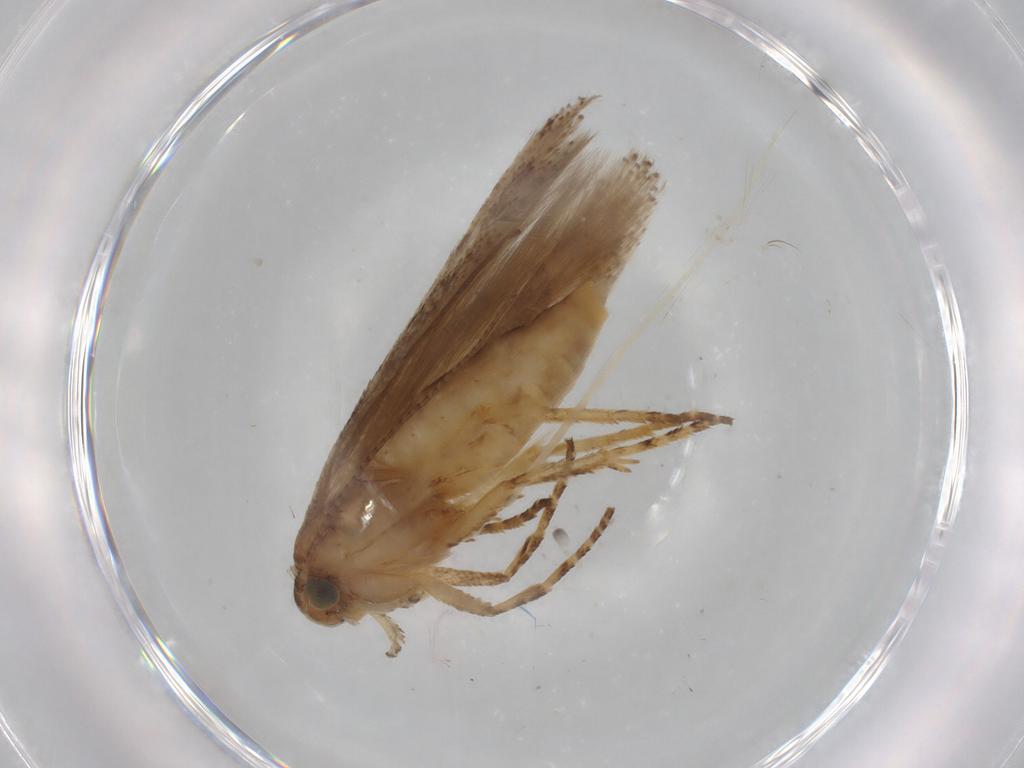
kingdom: Animalia
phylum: Arthropoda
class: Insecta
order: Lepidoptera
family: Gelechiidae
